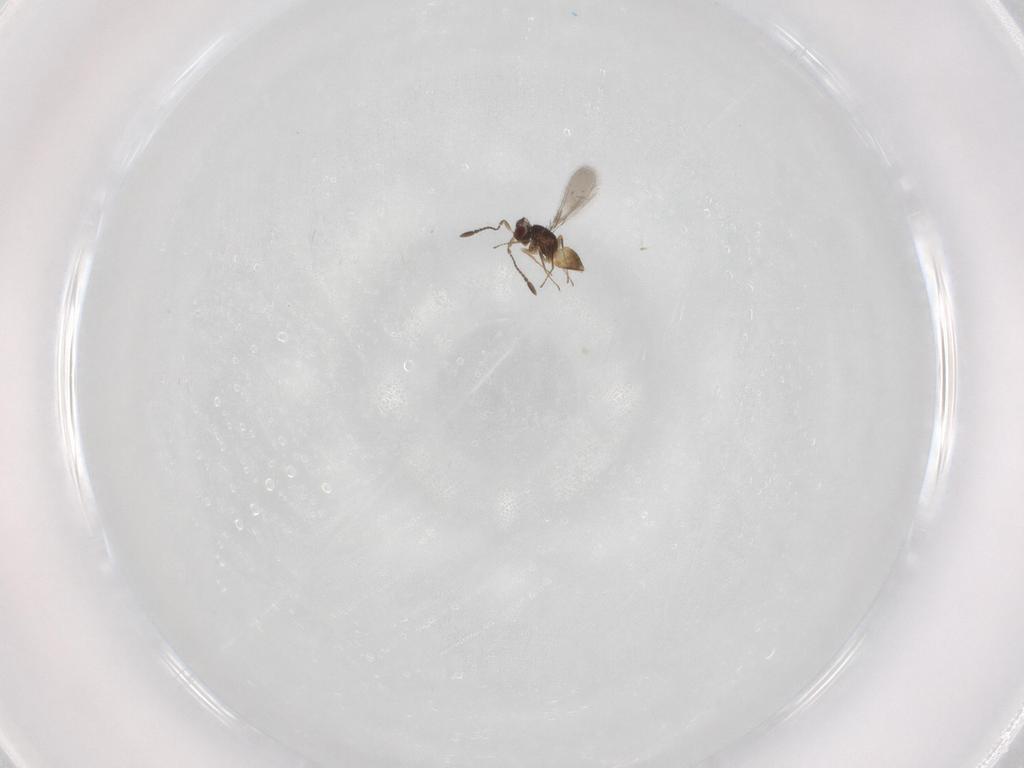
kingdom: Animalia
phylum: Arthropoda
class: Insecta
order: Hymenoptera
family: Mymaridae
